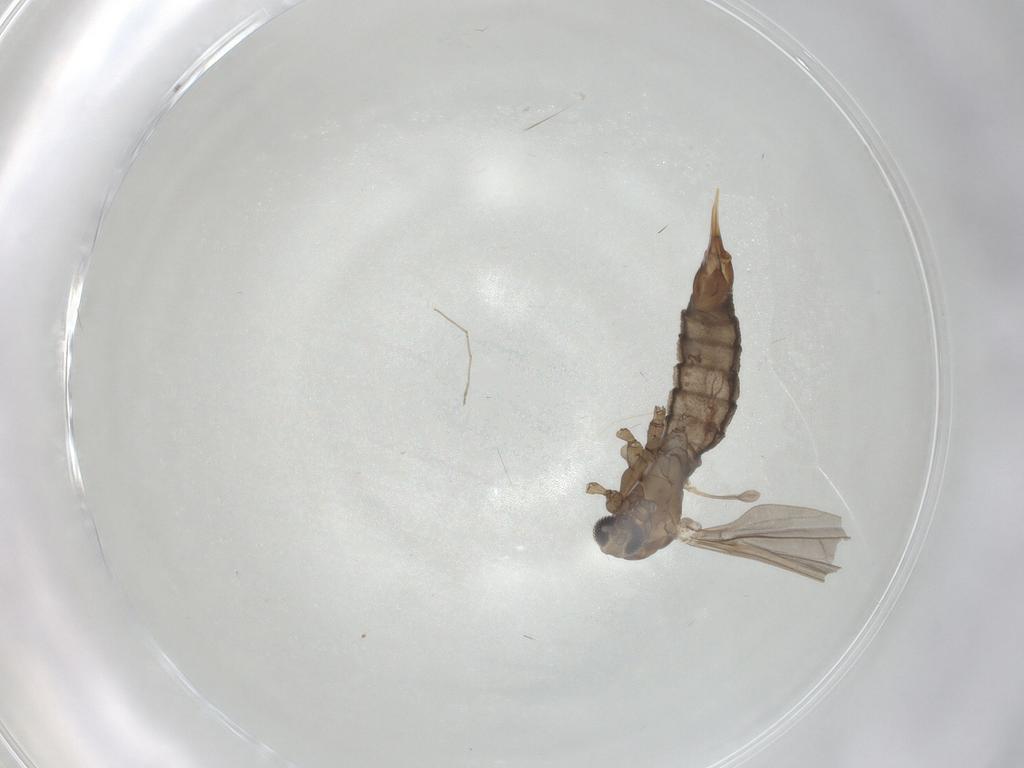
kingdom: Animalia
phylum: Arthropoda
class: Insecta
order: Diptera
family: Limoniidae
